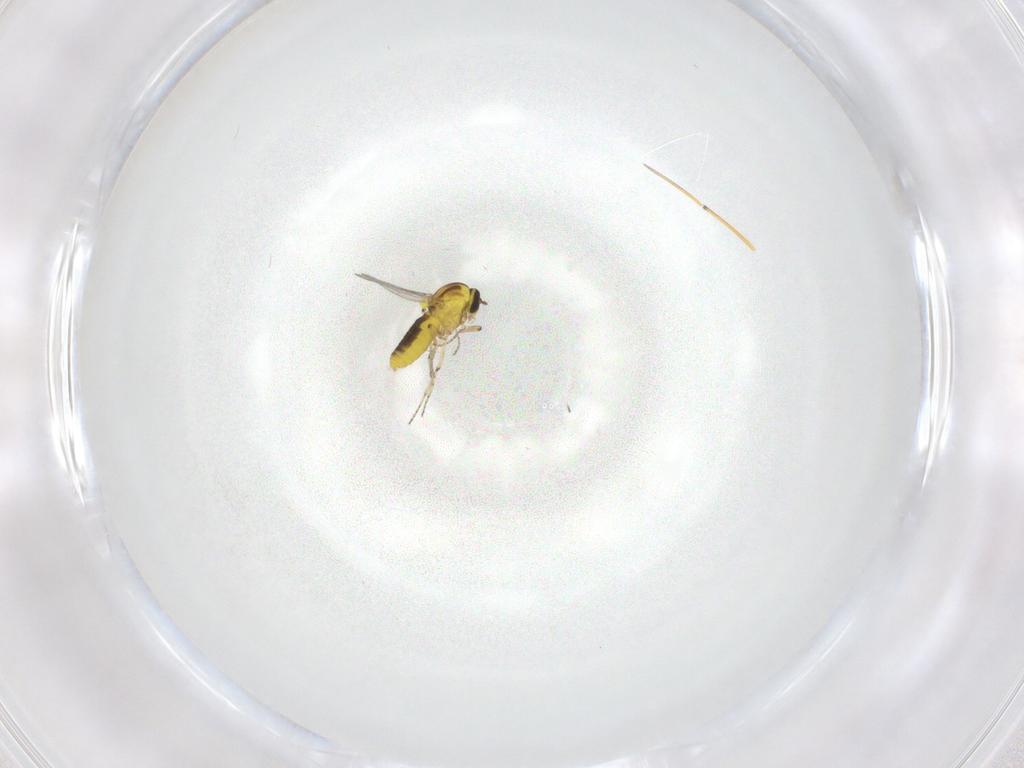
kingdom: Animalia
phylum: Arthropoda
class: Insecta
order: Diptera
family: Ceratopogonidae
